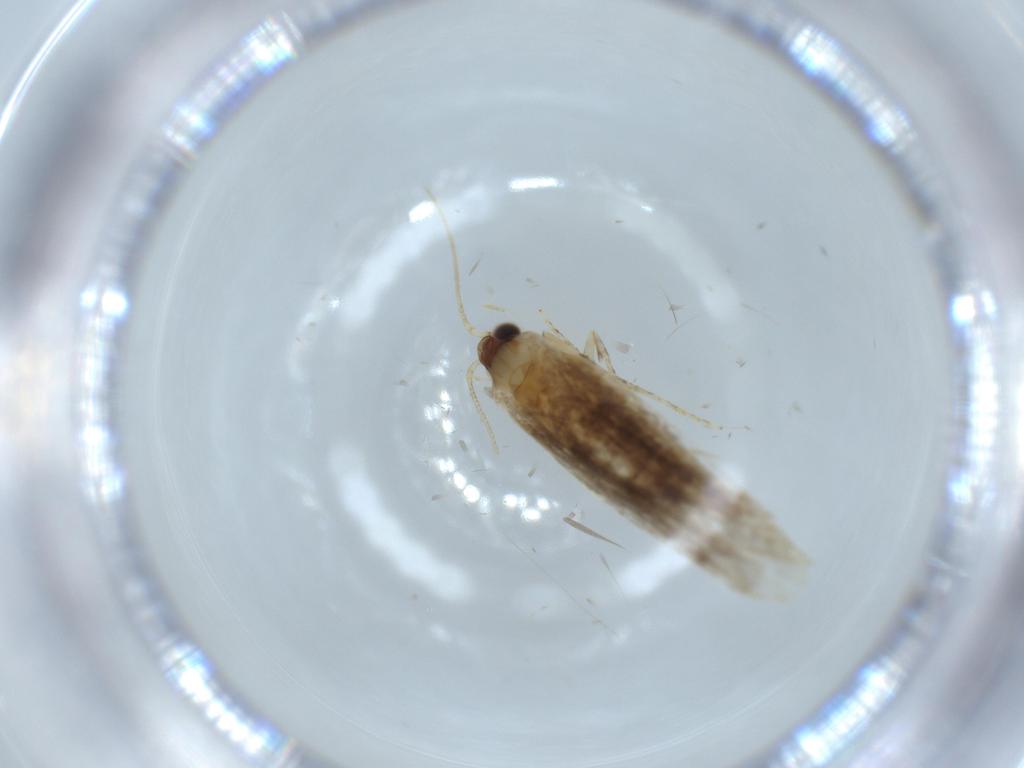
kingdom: Animalia
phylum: Arthropoda
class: Insecta
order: Lepidoptera
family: Tineidae
